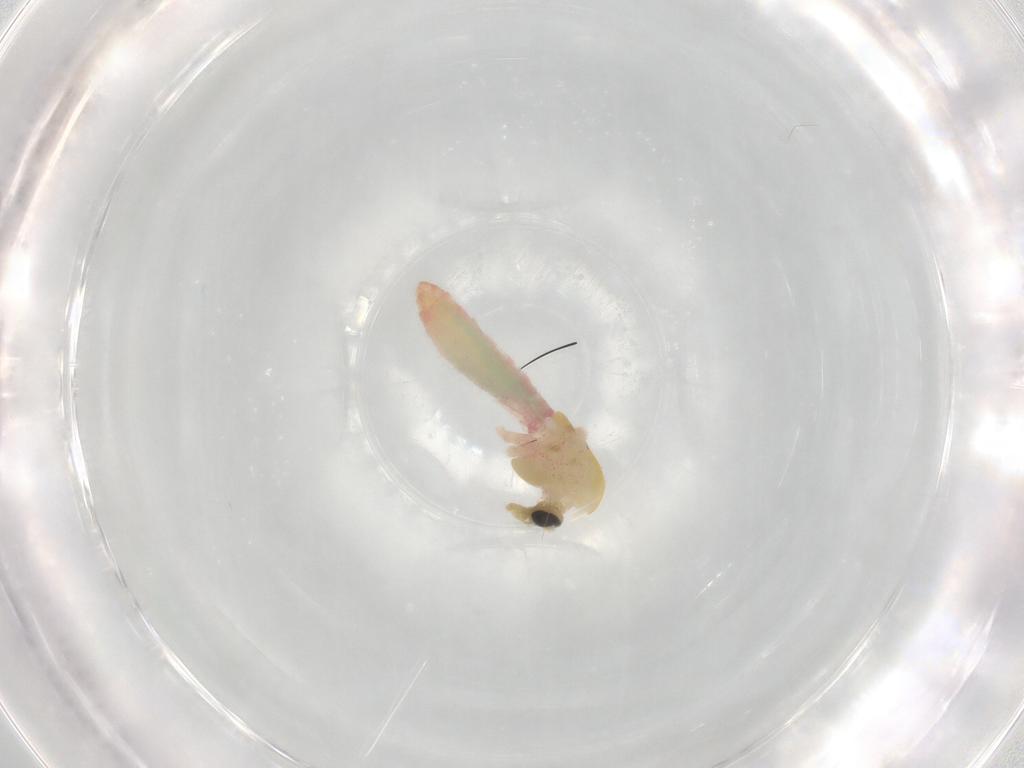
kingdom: Animalia
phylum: Arthropoda
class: Insecta
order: Diptera
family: Chironomidae
